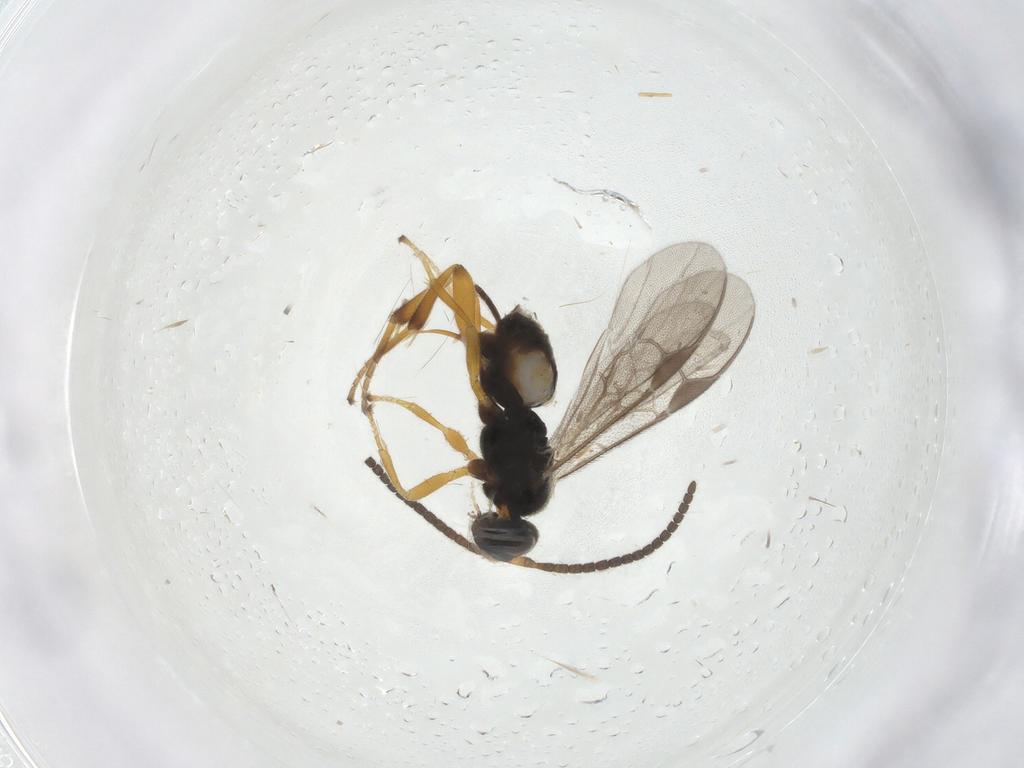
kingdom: Animalia
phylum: Arthropoda
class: Insecta
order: Hymenoptera
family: Braconidae
